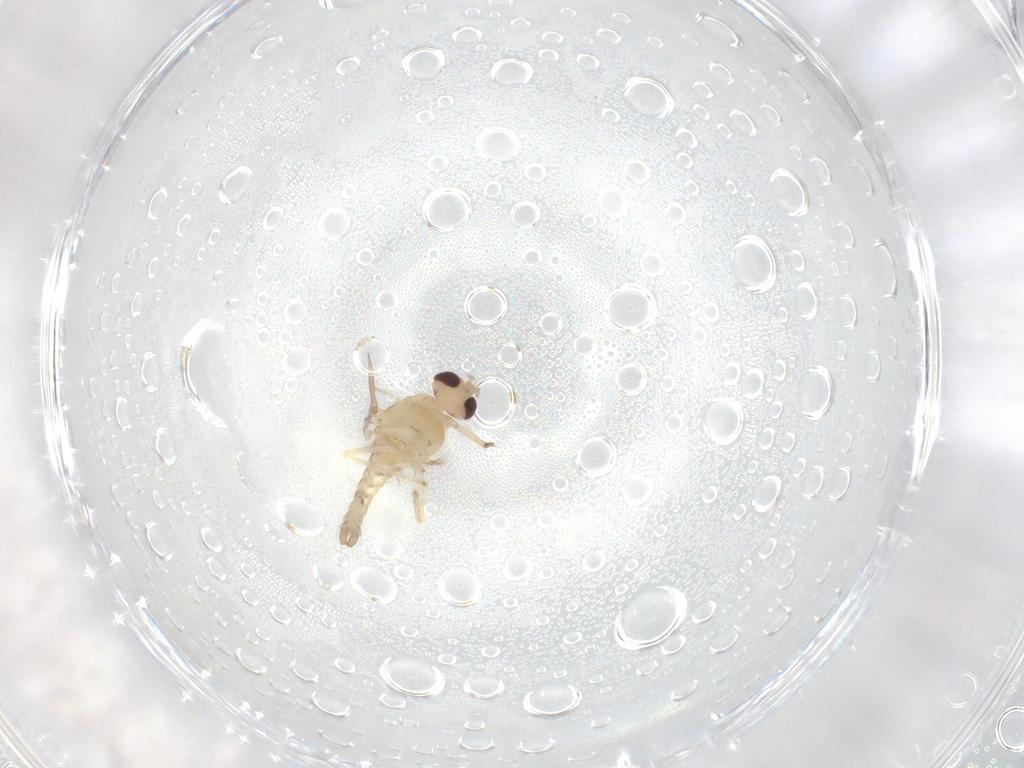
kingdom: Animalia
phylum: Arthropoda
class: Insecta
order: Diptera
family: Chironomidae
